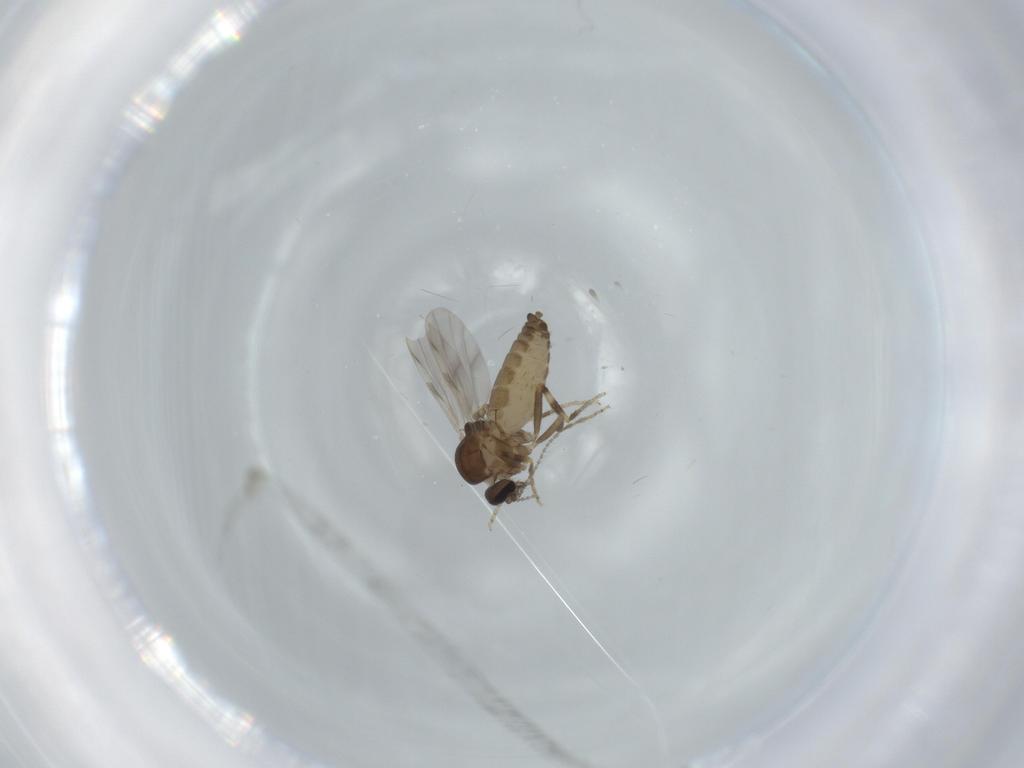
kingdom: Animalia
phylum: Arthropoda
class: Insecta
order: Diptera
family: Ceratopogonidae
